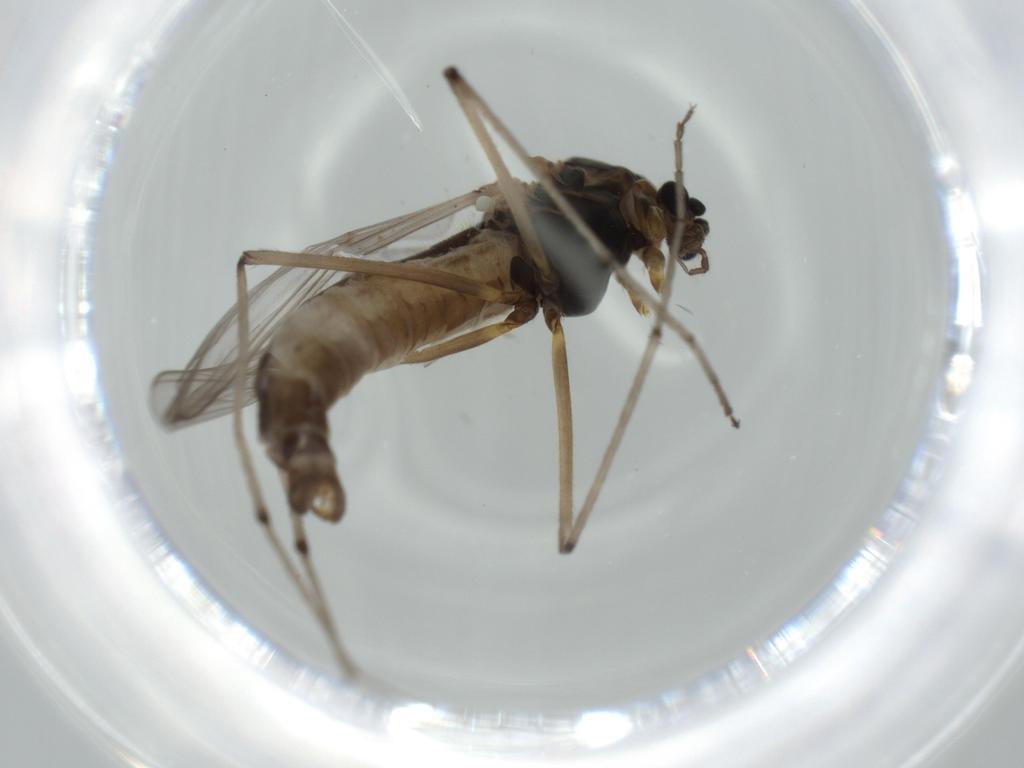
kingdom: Animalia
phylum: Arthropoda
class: Insecta
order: Diptera
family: Chironomidae
